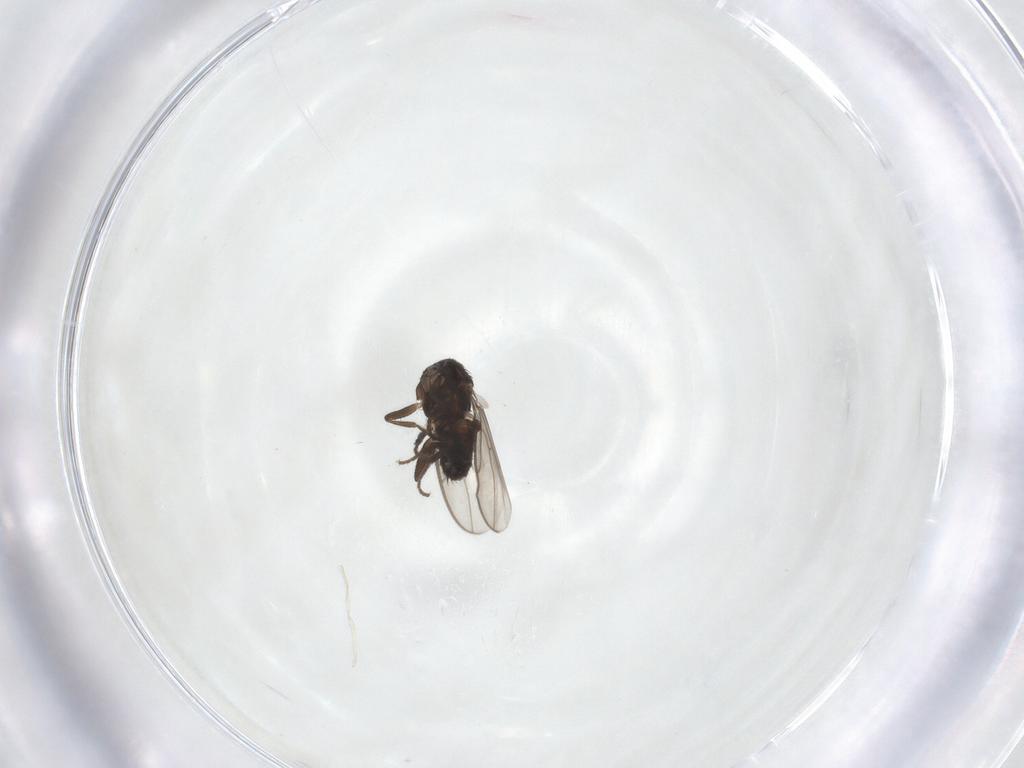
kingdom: Animalia
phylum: Arthropoda
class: Insecta
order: Diptera
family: Sphaeroceridae
